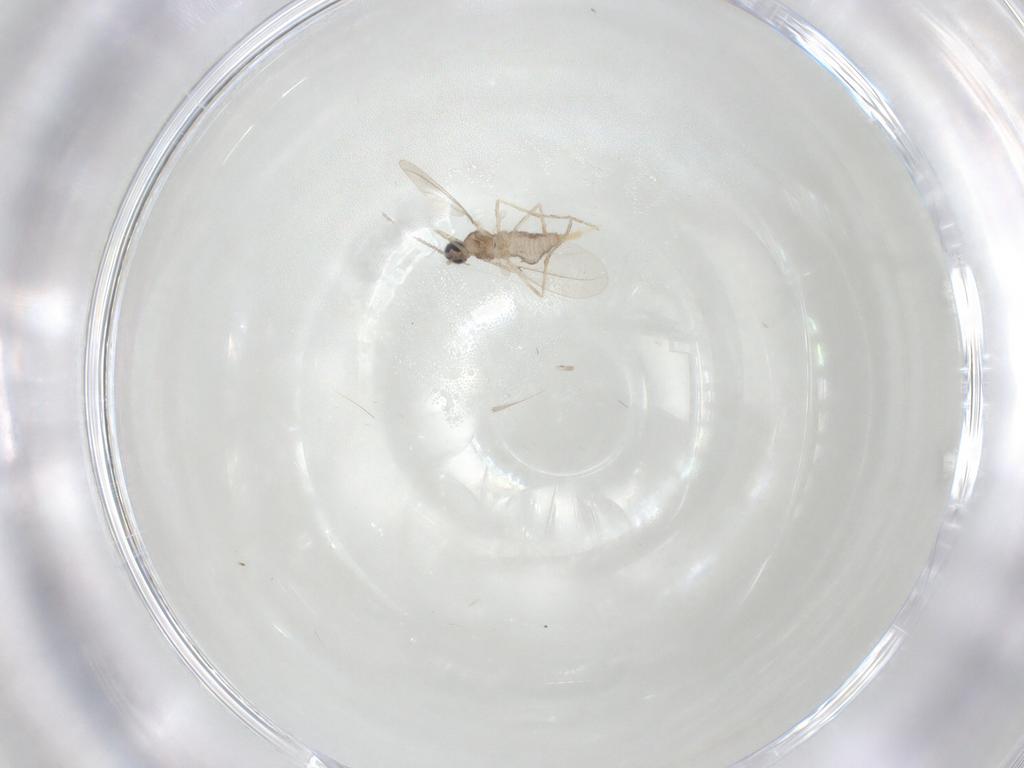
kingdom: Animalia
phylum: Arthropoda
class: Insecta
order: Diptera
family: Cecidomyiidae
